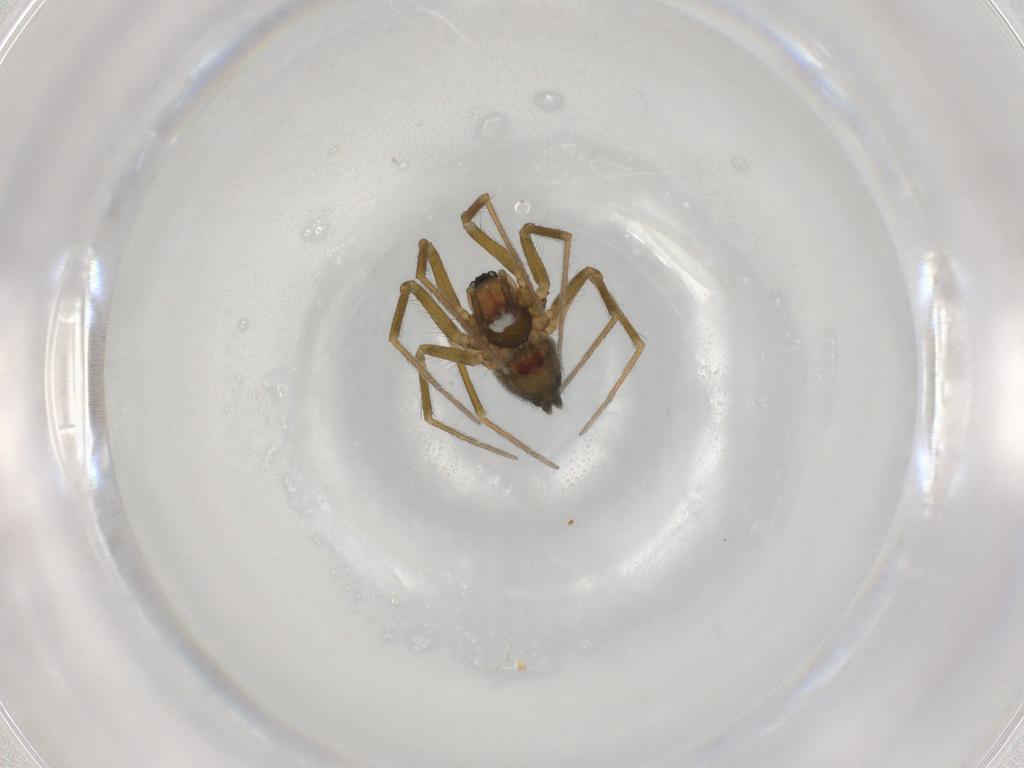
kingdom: Animalia
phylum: Arthropoda
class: Arachnida
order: Araneae
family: Linyphiidae
